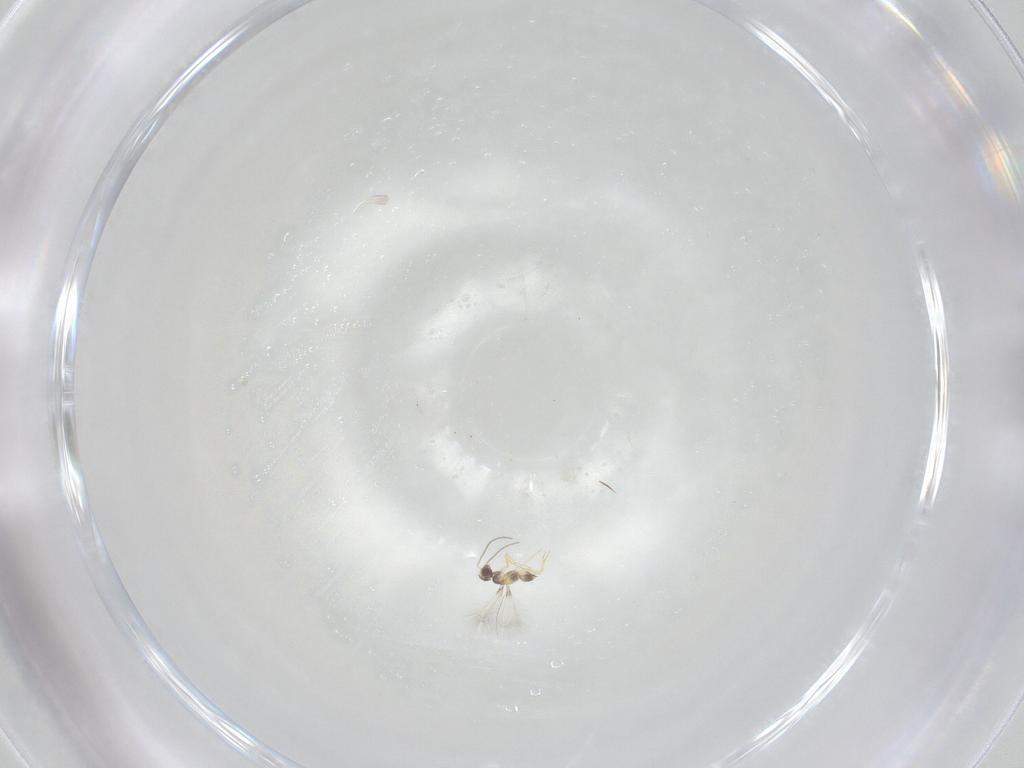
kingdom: Animalia
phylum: Arthropoda
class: Insecta
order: Hymenoptera
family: Mymaridae
